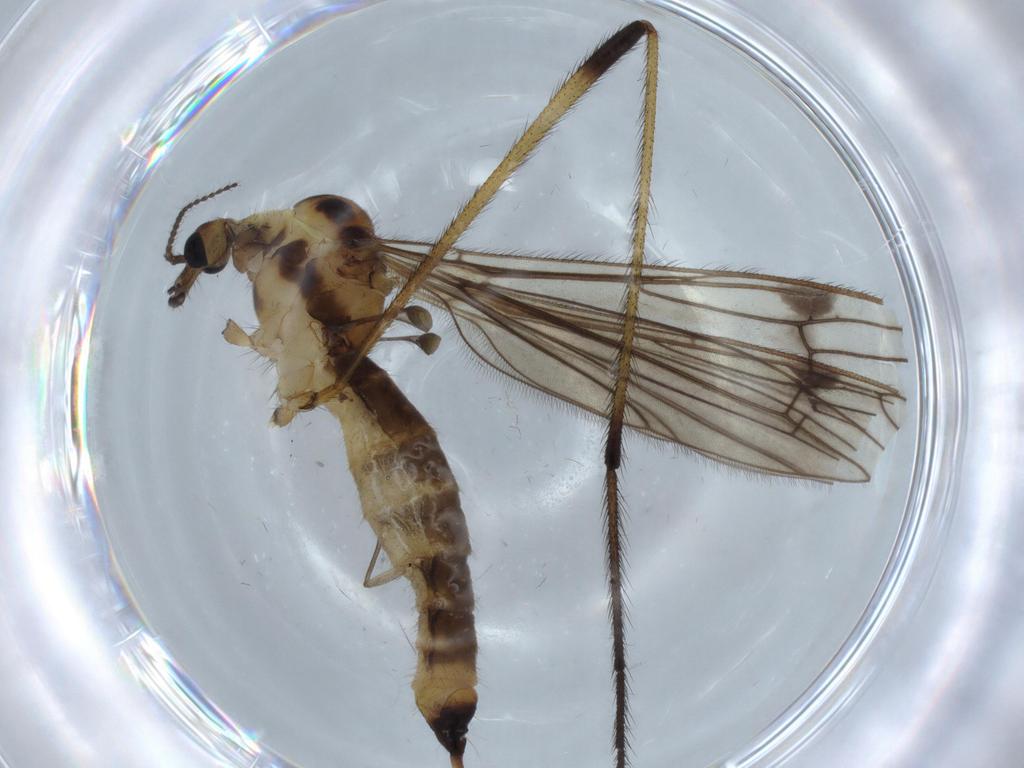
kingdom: Animalia
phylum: Arthropoda
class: Insecta
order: Diptera
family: Limoniidae
